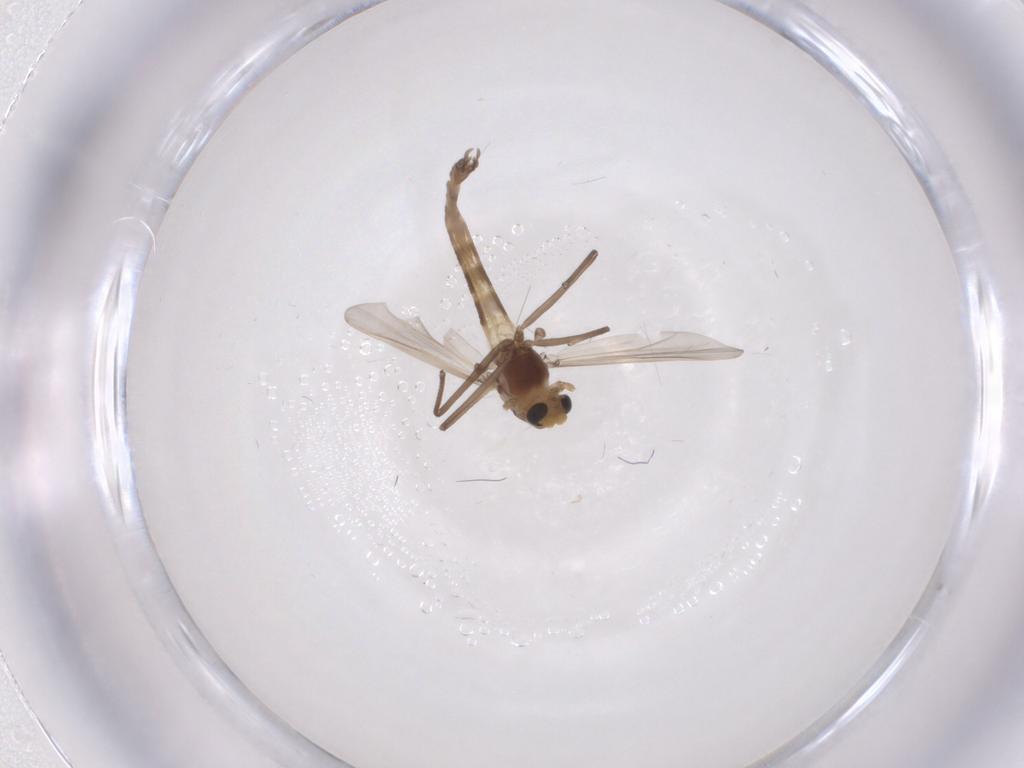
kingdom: Animalia
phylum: Arthropoda
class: Insecta
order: Diptera
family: Chironomidae
